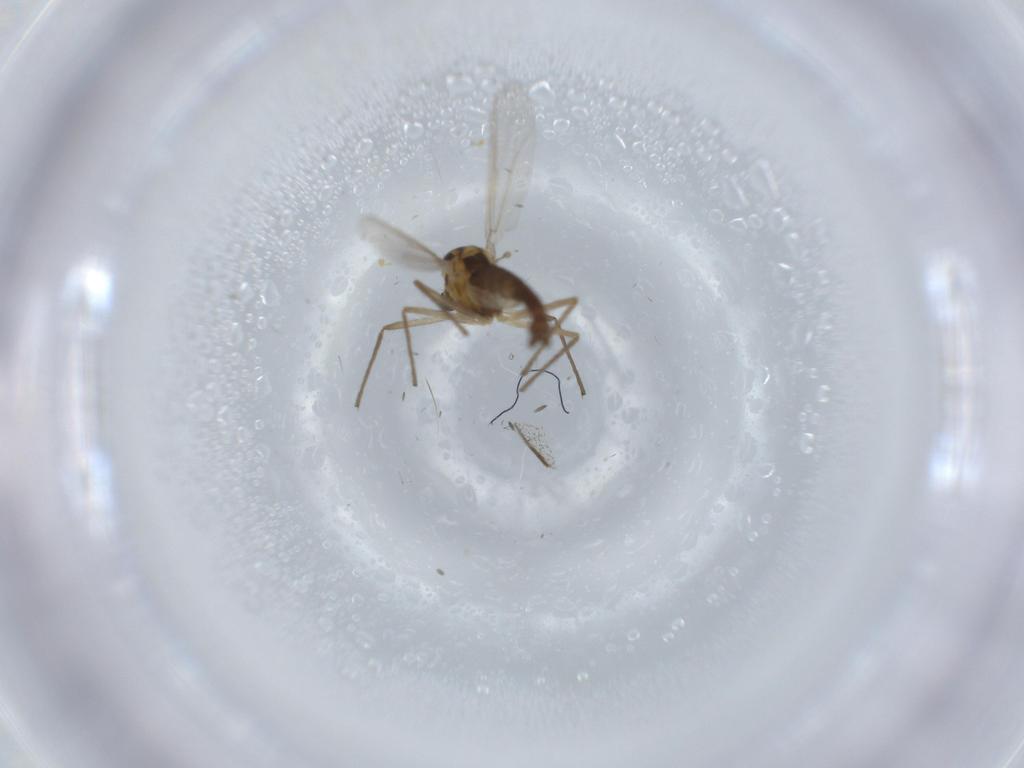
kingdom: Animalia
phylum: Arthropoda
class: Insecta
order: Diptera
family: Chironomidae
